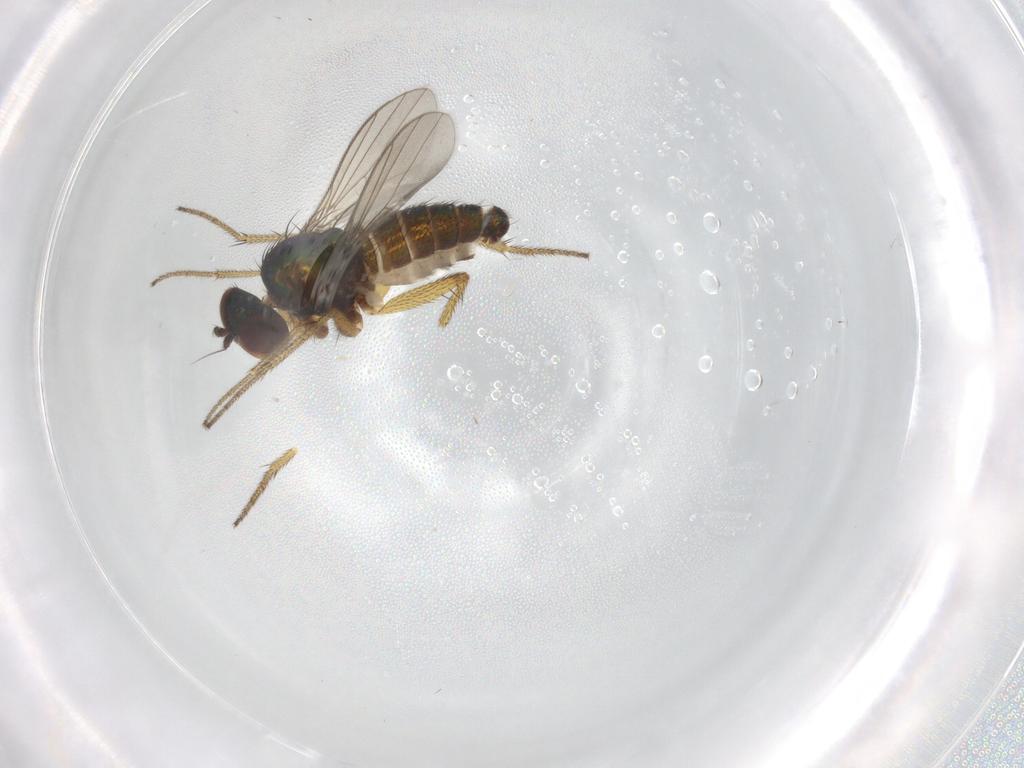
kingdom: Animalia
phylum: Arthropoda
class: Insecta
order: Diptera
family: Dolichopodidae
